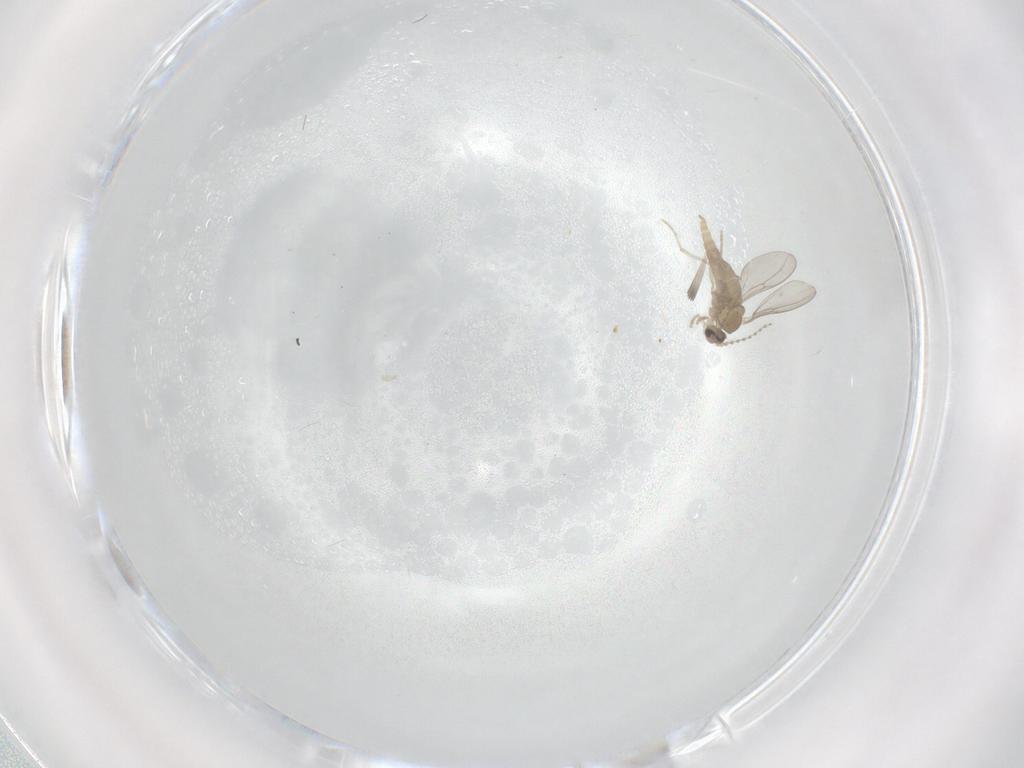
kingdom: Animalia
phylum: Arthropoda
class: Insecta
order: Diptera
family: Cecidomyiidae
